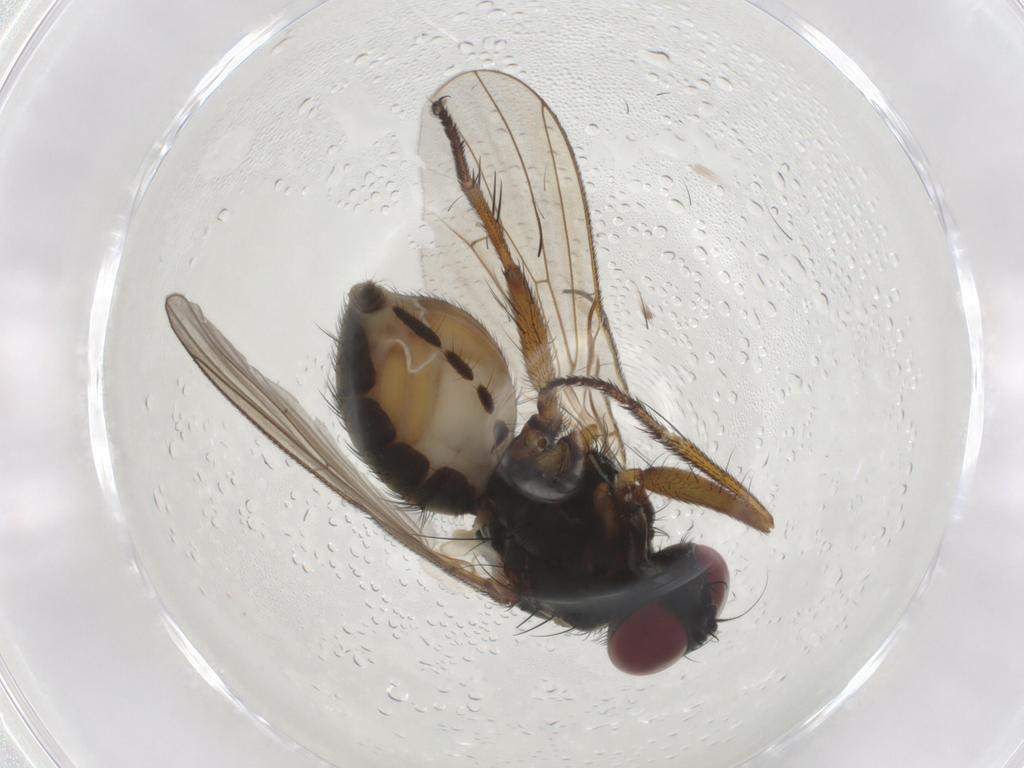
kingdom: Animalia
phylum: Arthropoda
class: Insecta
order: Diptera
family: Muscidae
